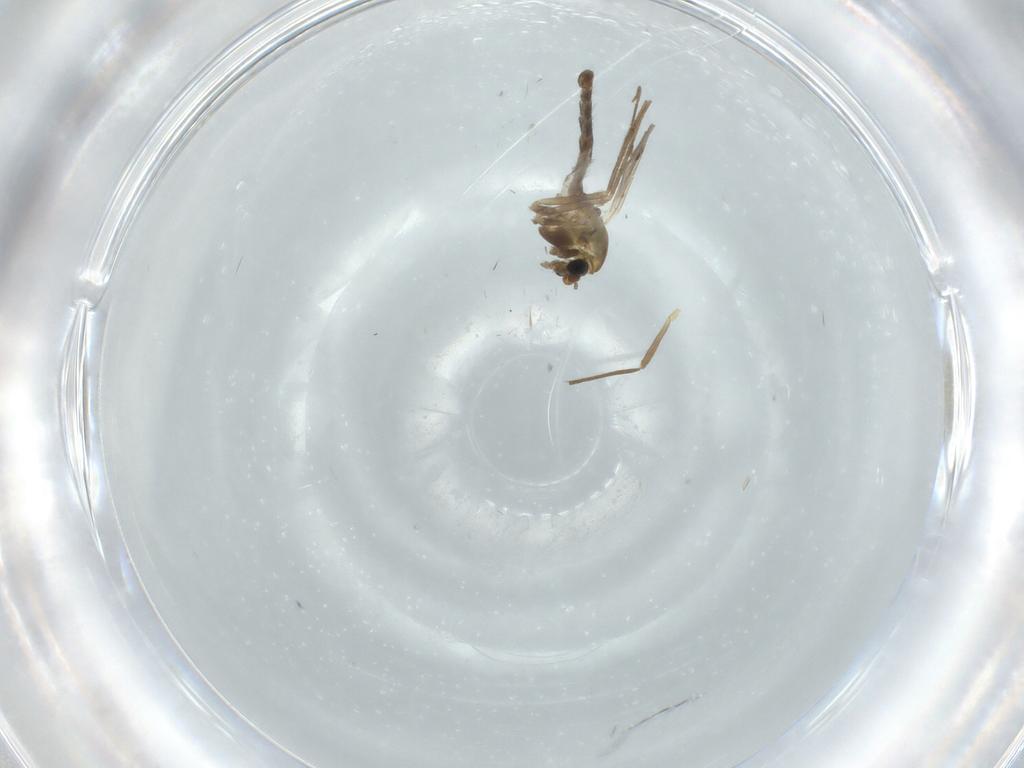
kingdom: Animalia
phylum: Arthropoda
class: Insecta
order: Diptera
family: Chironomidae
